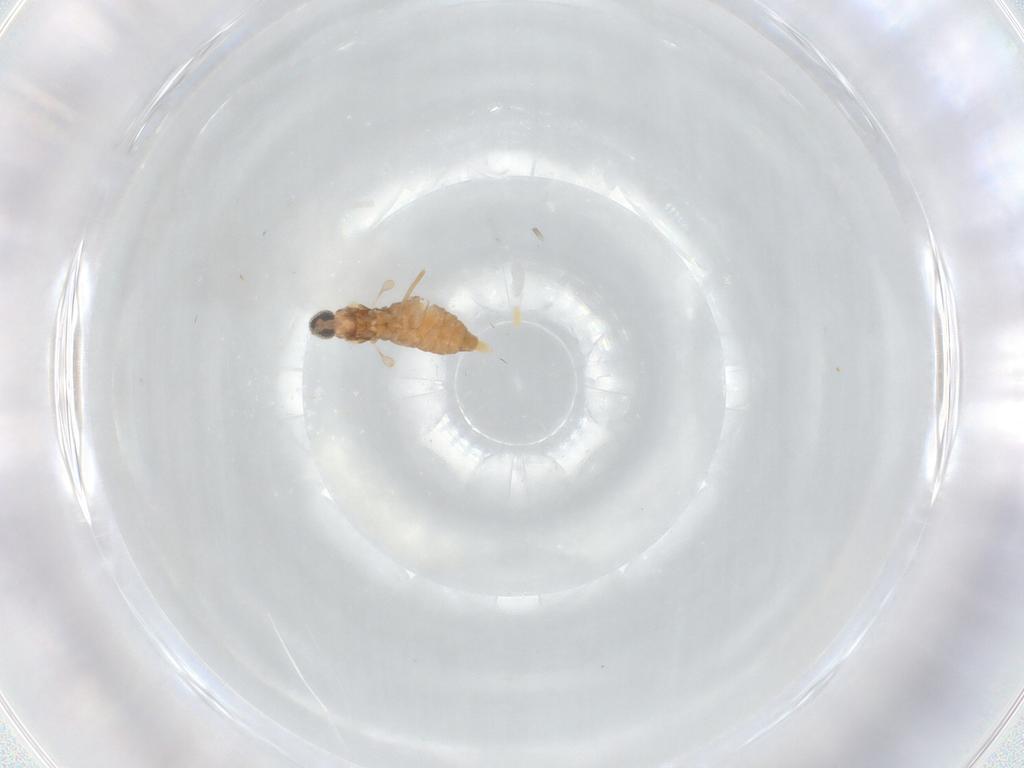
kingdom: Animalia
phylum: Arthropoda
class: Insecta
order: Diptera
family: Cecidomyiidae
